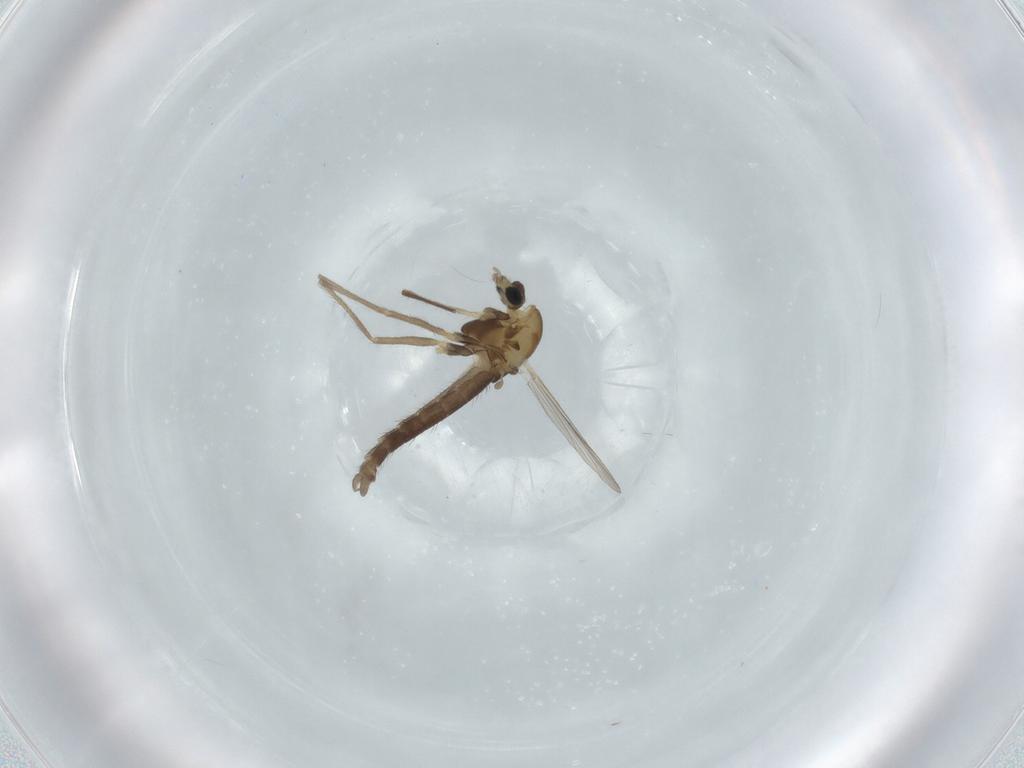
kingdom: Animalia
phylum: Arthropoda
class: Insecta
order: Diptera
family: Chironomidae
